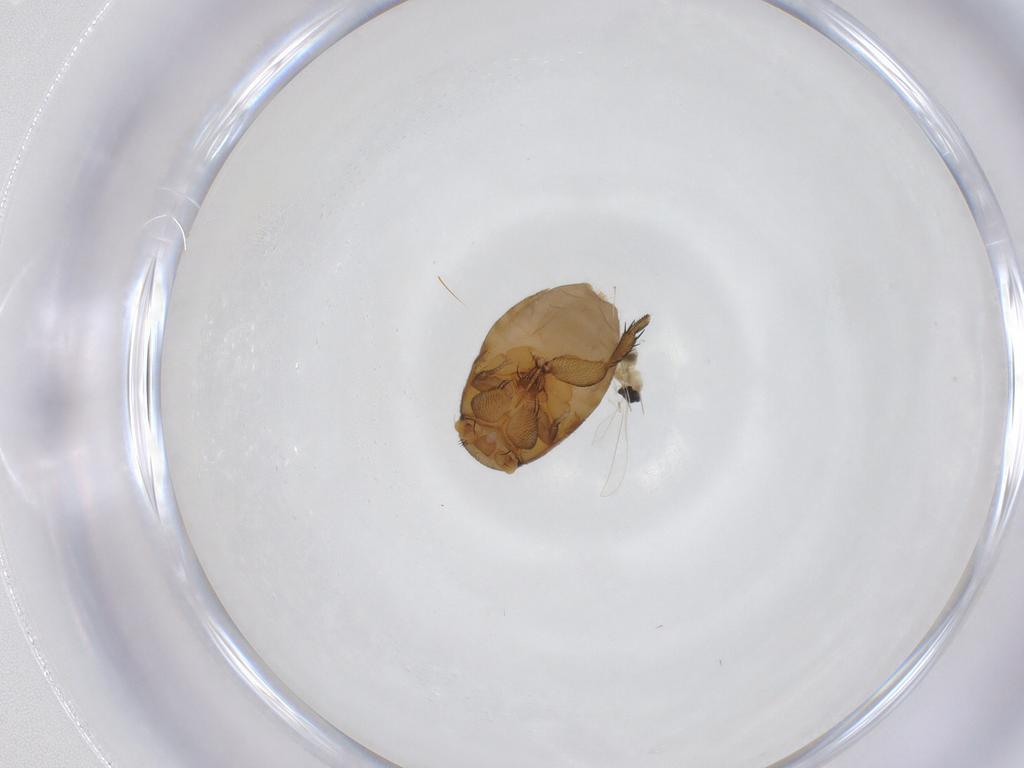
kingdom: Animalia
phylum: Arthropoda
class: Insecta
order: Diptera
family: Cecidomyiidae
